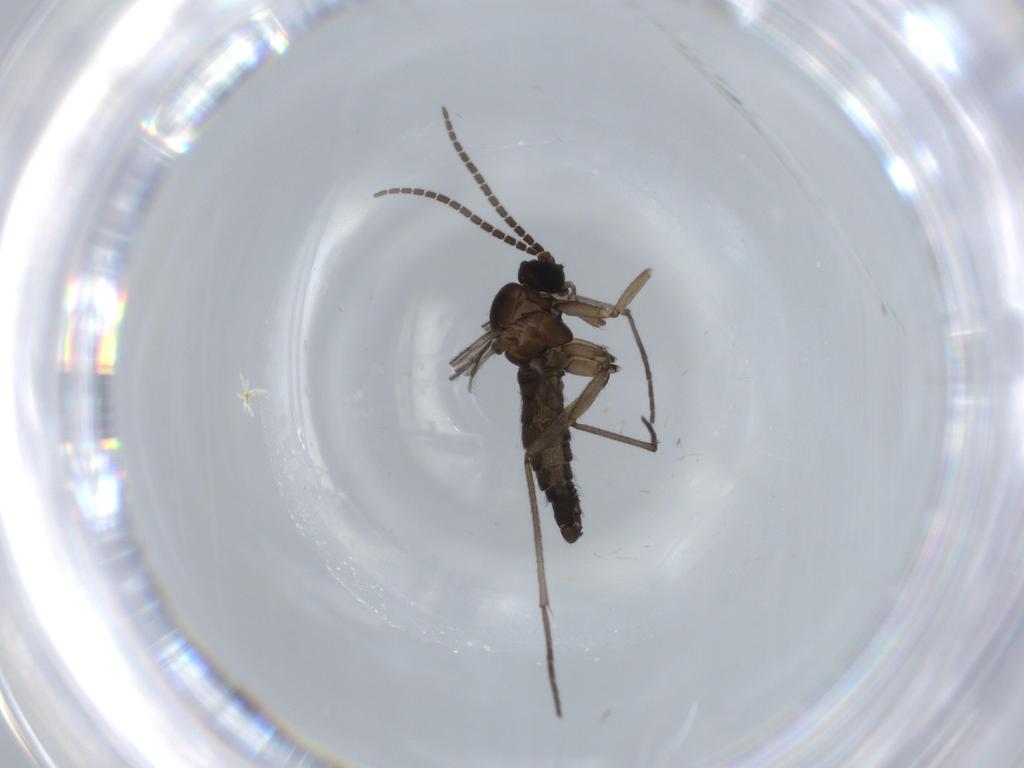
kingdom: Animalia
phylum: Arthropoda
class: Insecta
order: Diptera
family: Sciaridae
